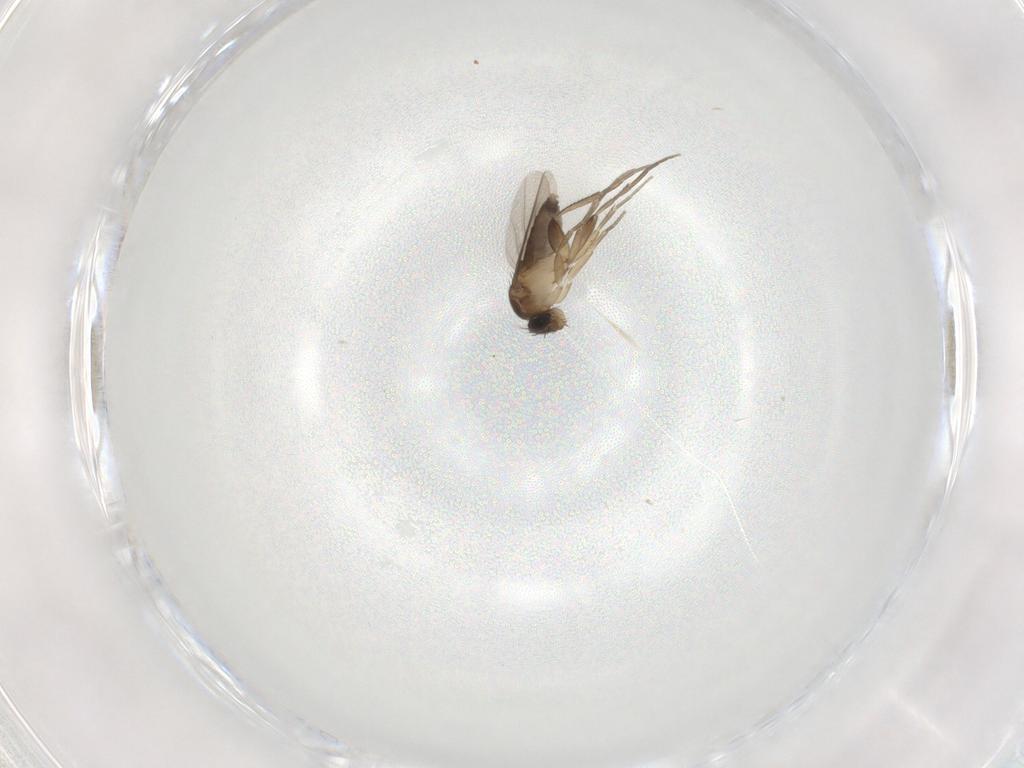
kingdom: Animalia
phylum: Arthropoda
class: Insecta
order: Diptera
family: Phoridae
